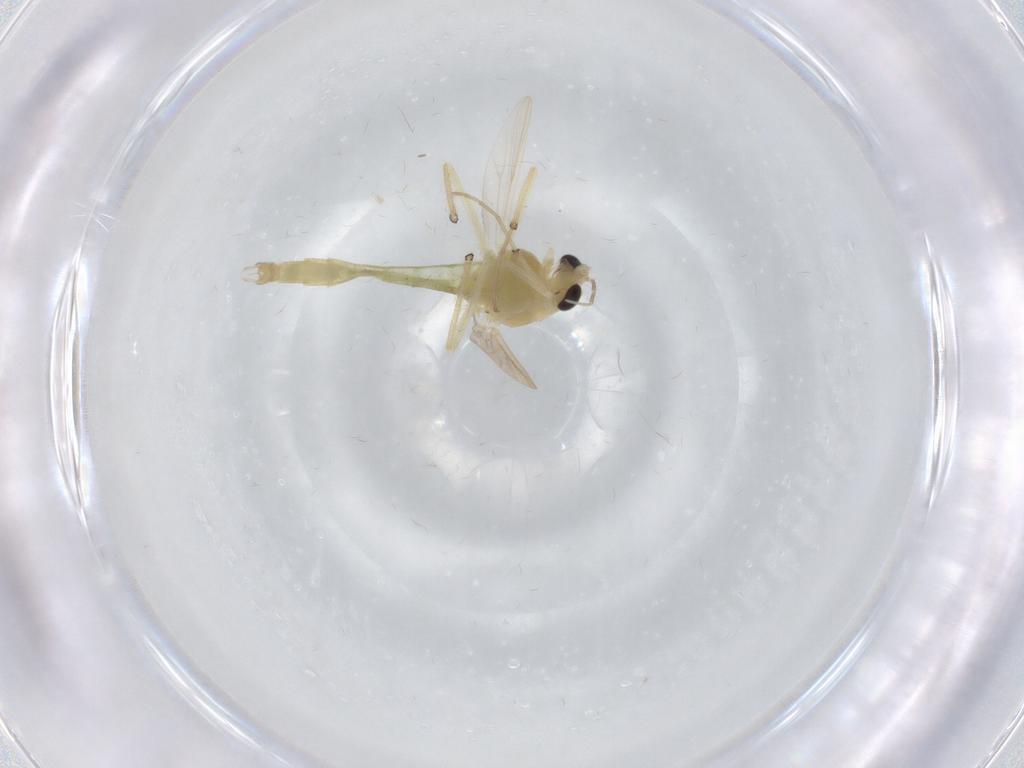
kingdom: Animalia
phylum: Arthropoda
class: Insecta
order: Diptera
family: Chironomidae
